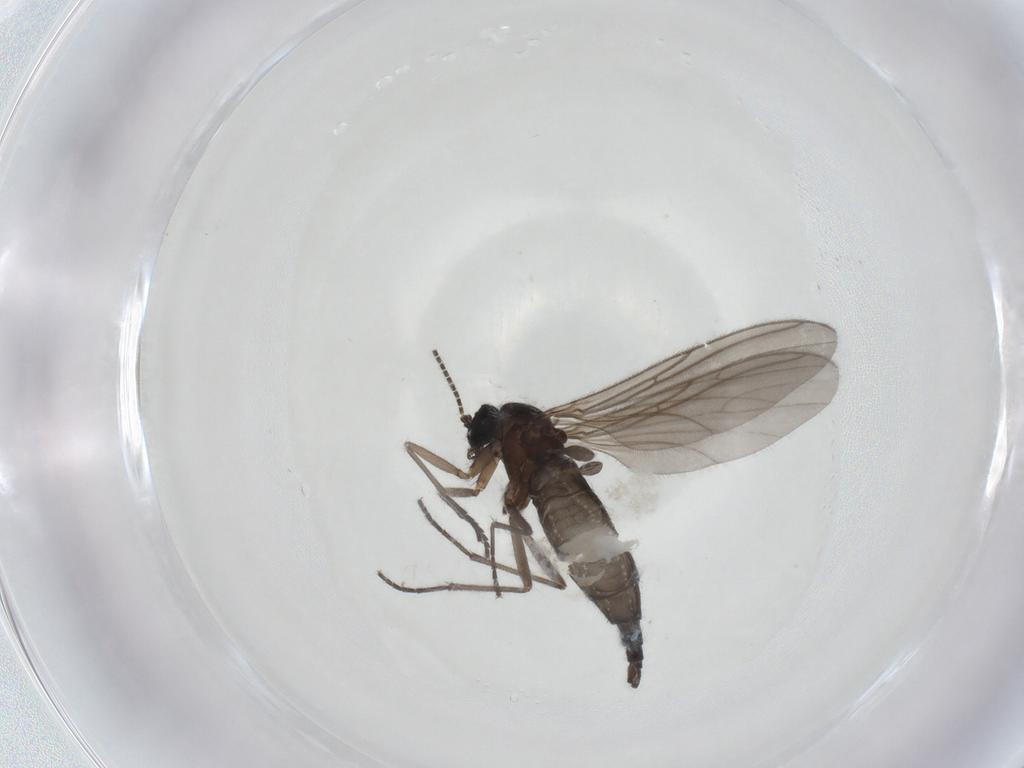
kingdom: Animalia
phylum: Arthropoda
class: Insecta
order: Diptera
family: Sciaridae
